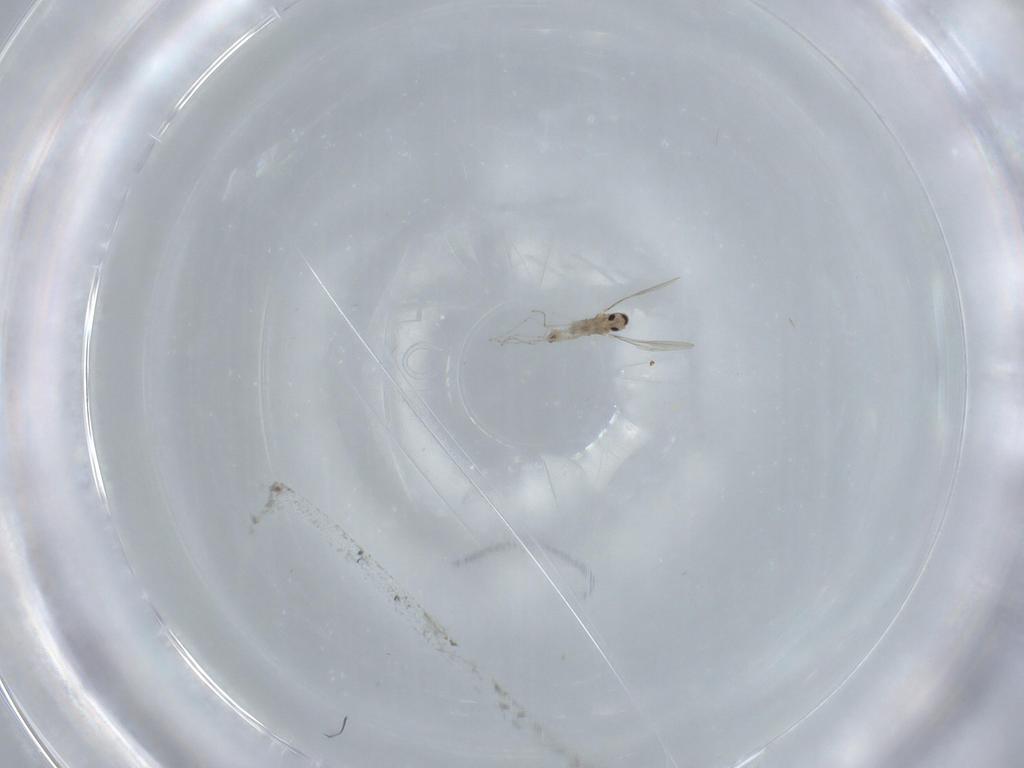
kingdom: Animalia
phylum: Arthropoda
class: Insecta
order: Diptera
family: Cecidomyiidae
